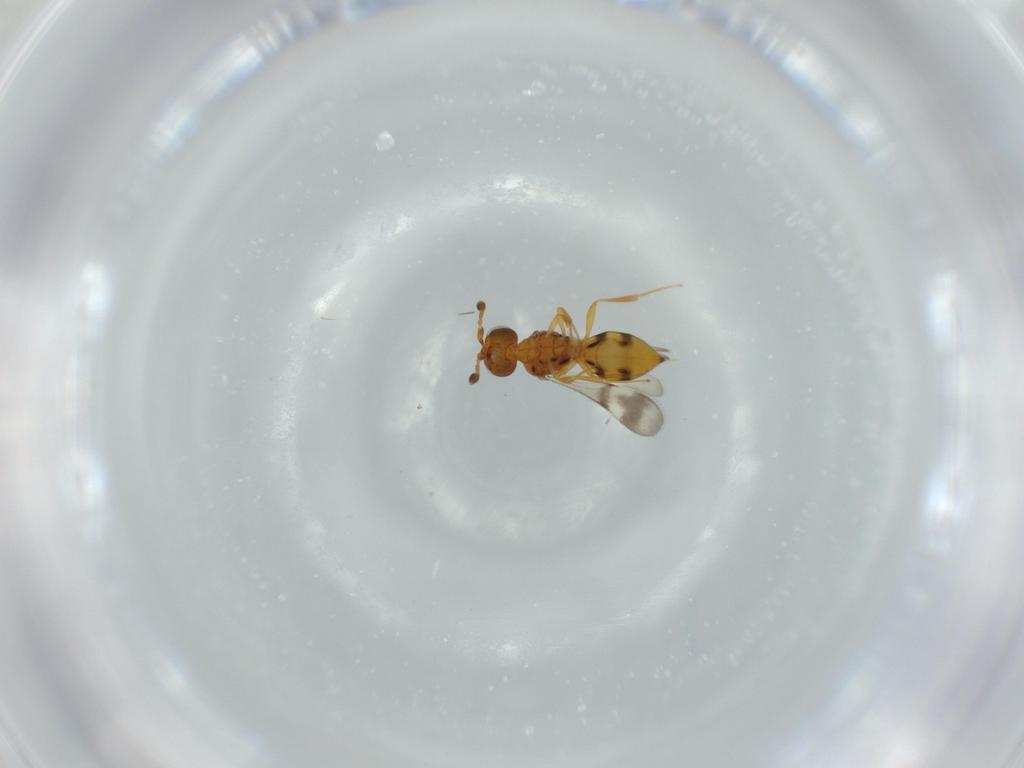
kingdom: Animalia
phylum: Arthropoda
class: Insecta
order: Hymenoptera
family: Scelionidae
